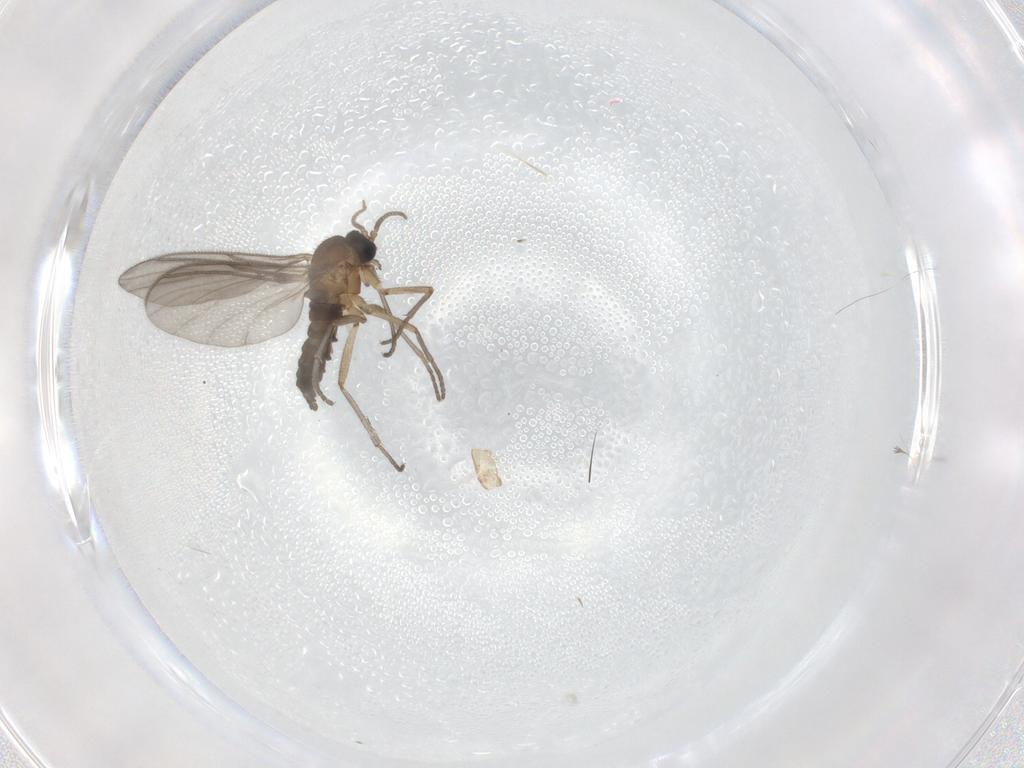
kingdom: Animalia
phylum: Arthropoda
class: Insecta
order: Diptera
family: Sciaridae
